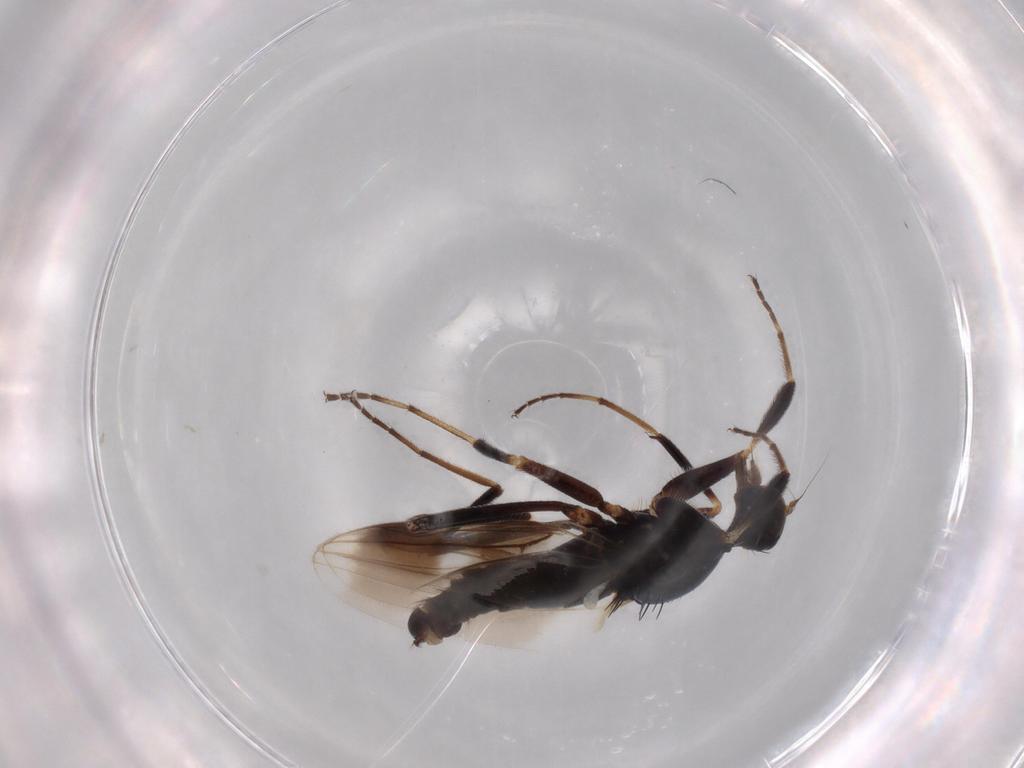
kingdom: Animalia
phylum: Arthropoda
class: Insecta
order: Diptera
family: Hybotidae
